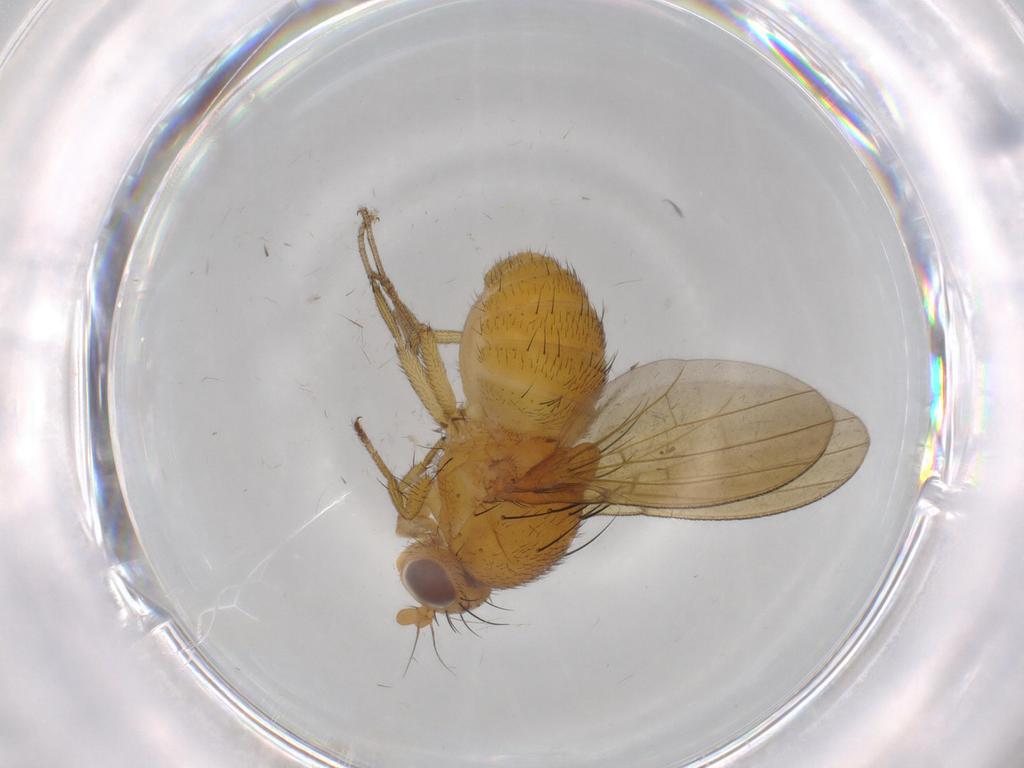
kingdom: Animalia
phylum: Arthropoda
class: Insecta
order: Diptera
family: Lauxaniidae
